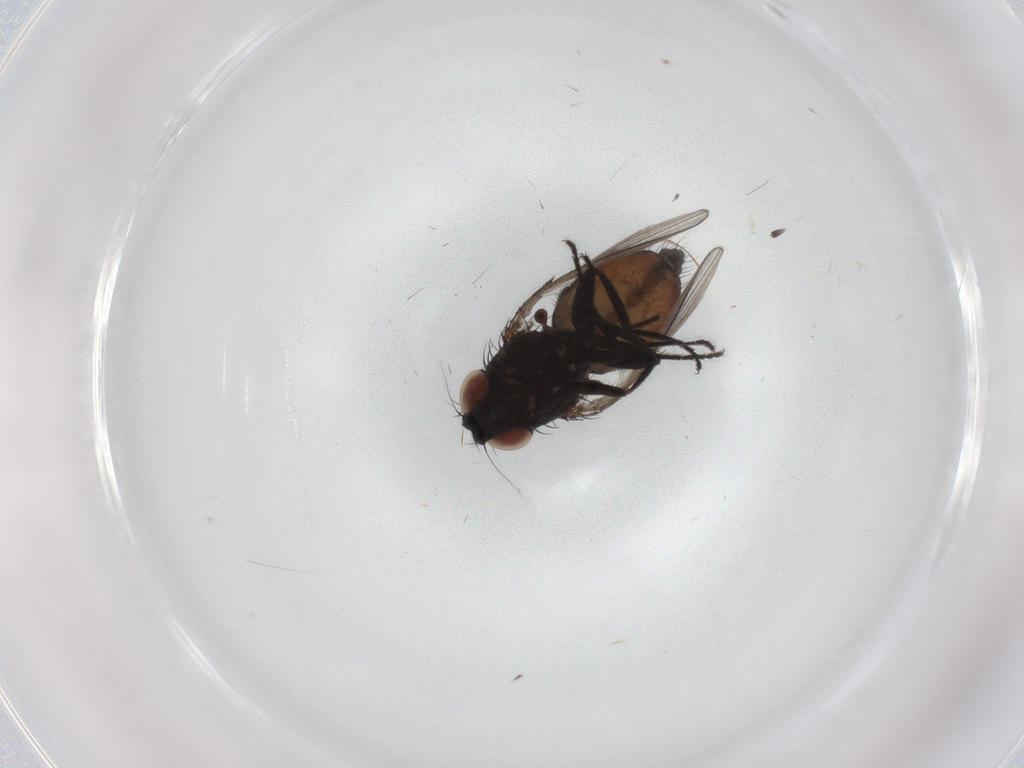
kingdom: Animalia
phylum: Arthropoda
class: Insecta
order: Diptera
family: Milichiidae
